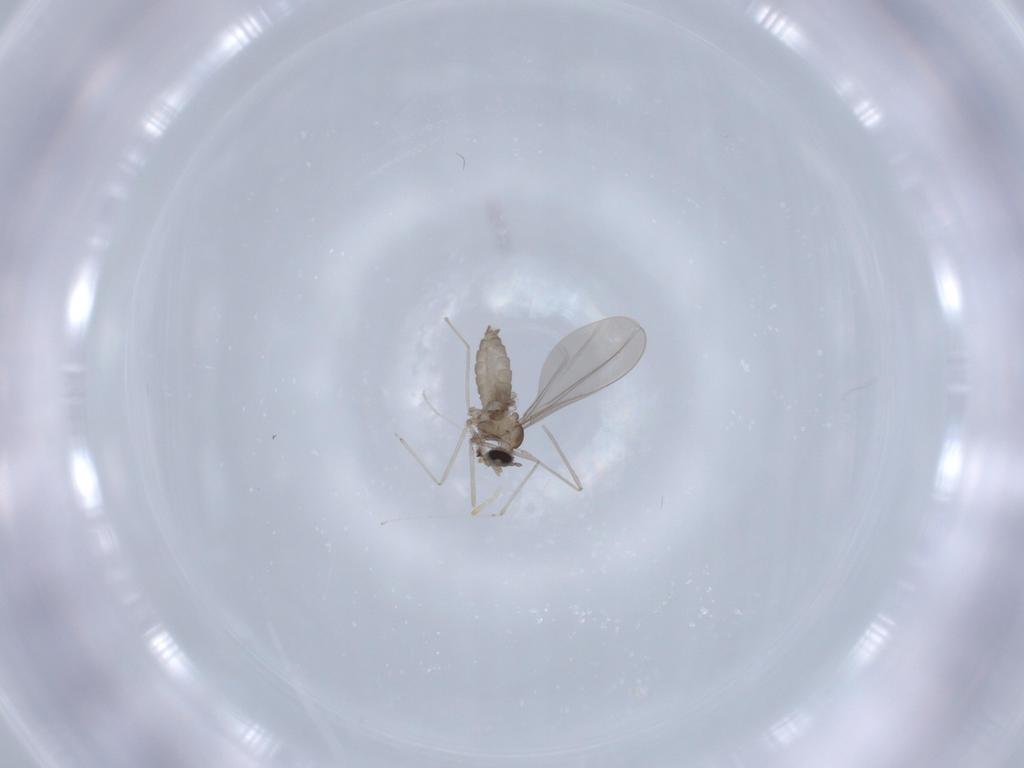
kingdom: Animalia
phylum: Arthropoda
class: Insecta
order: Diptera
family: Cecidomyiidae
